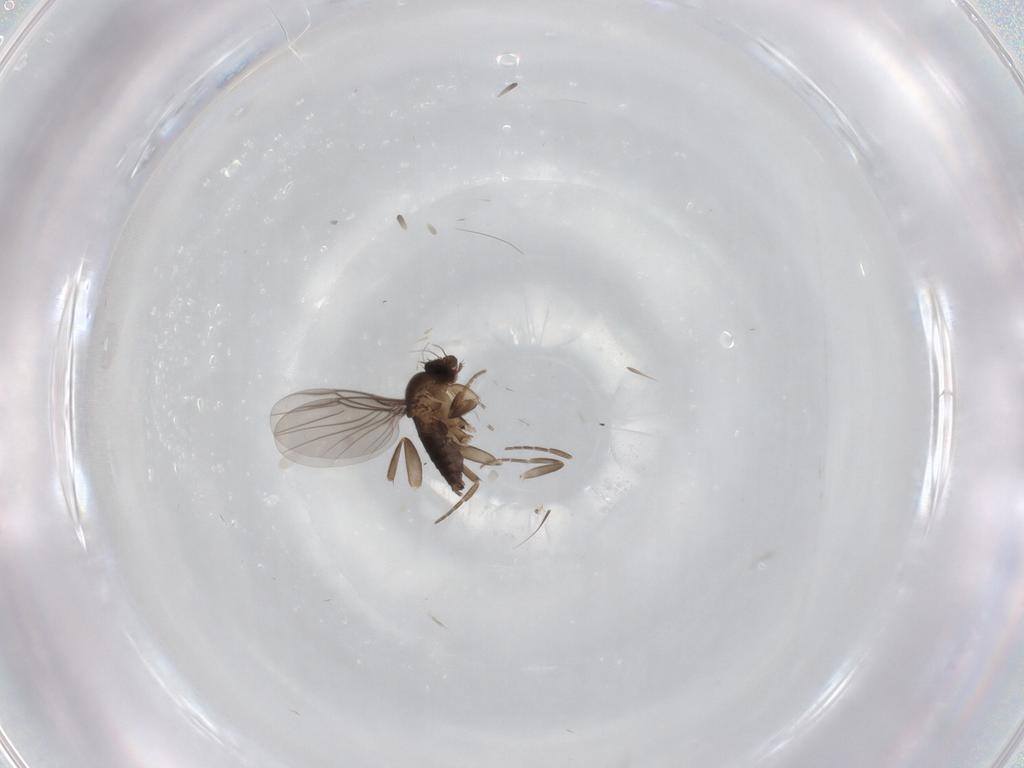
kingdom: Animalia
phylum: Arthropoda
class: Insecta
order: Diptera
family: Phoridae
